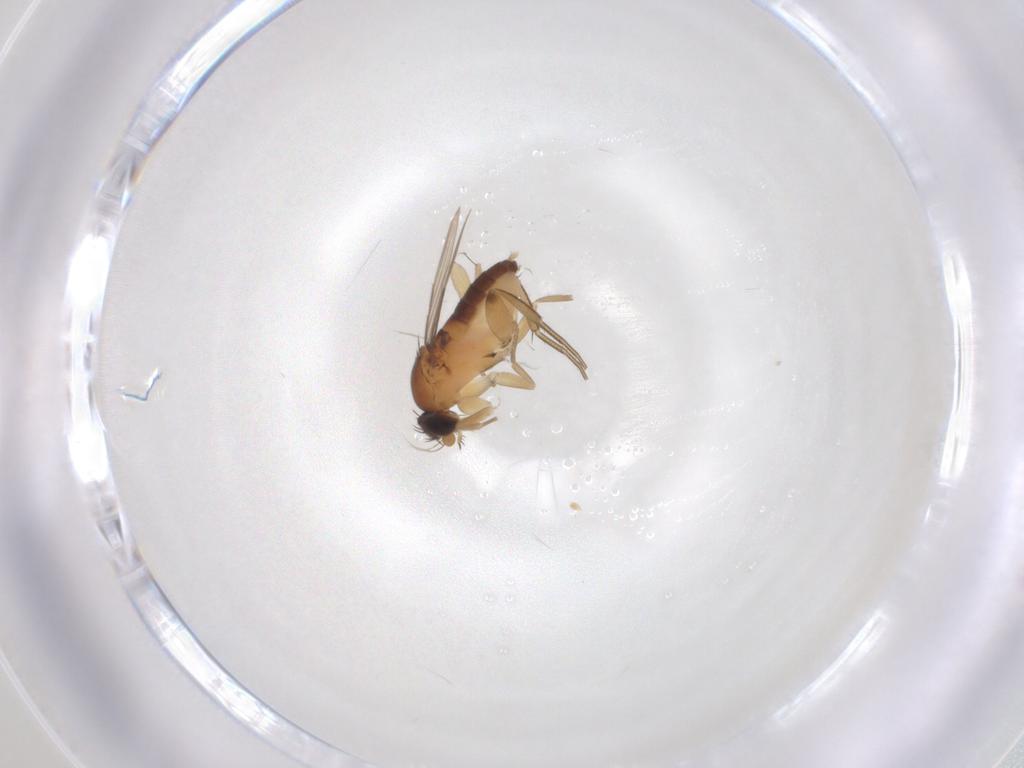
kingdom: Animalia
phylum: Arthropoda
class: Insecta
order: Diptera
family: Phoridae
